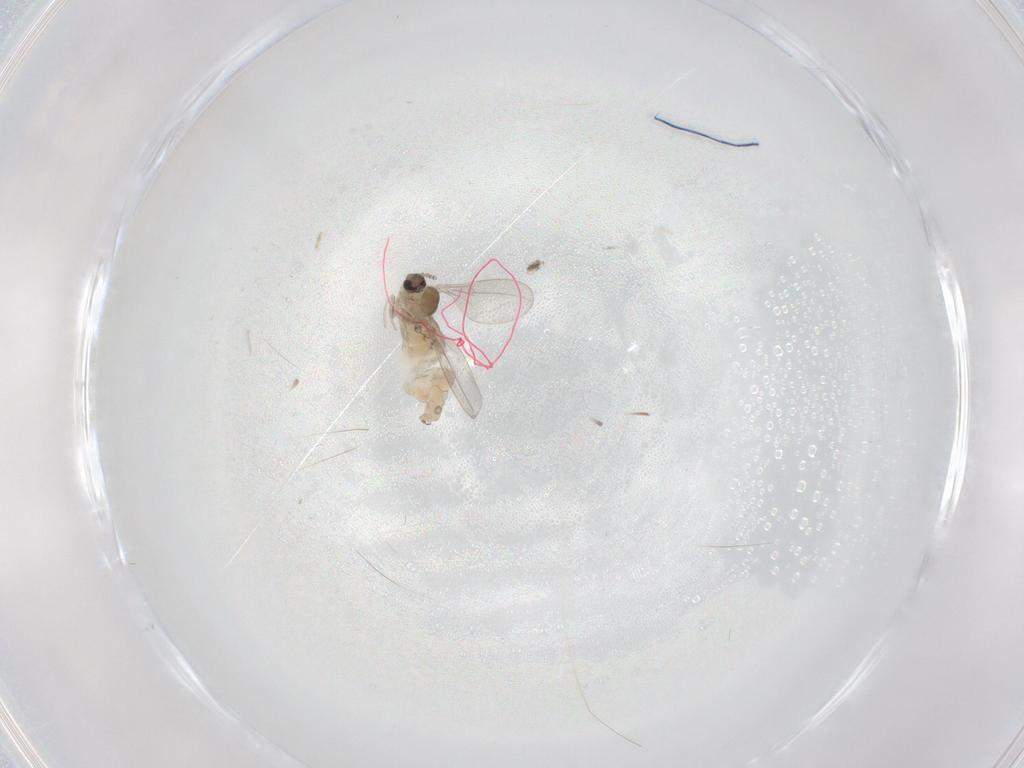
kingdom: Animalia
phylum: Arthropoda
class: Insecta
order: Diptera
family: Cecidomyiidae
